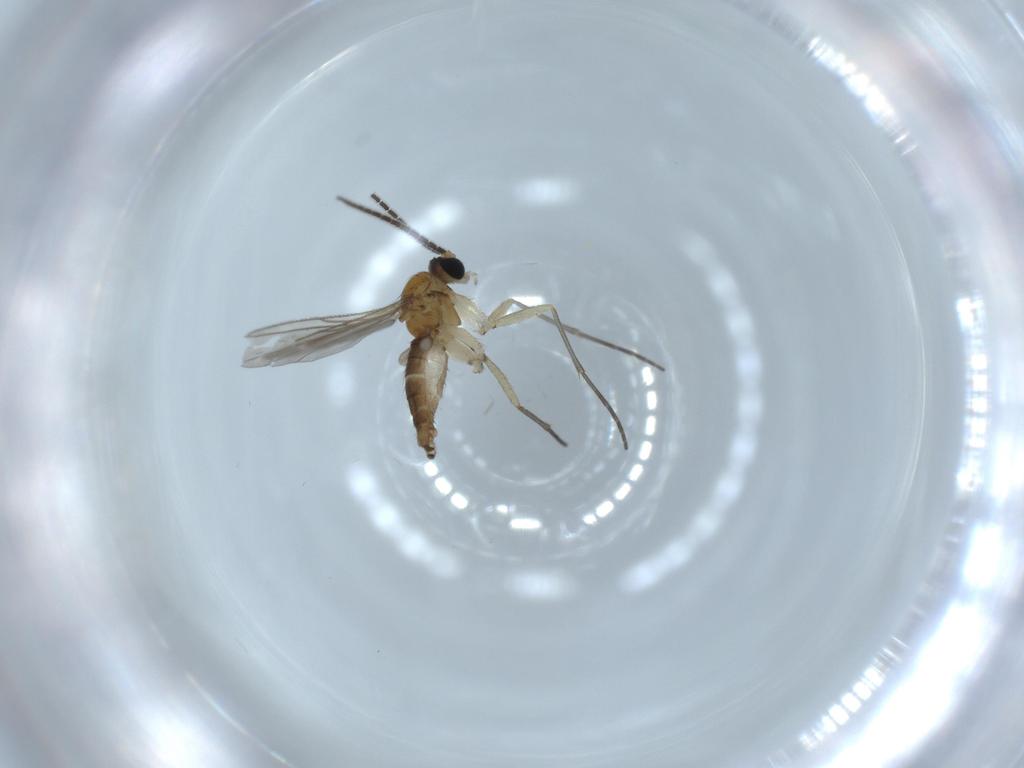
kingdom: Animalia
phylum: Arthropoda
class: Insecta
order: Diptera
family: Sciaridae
